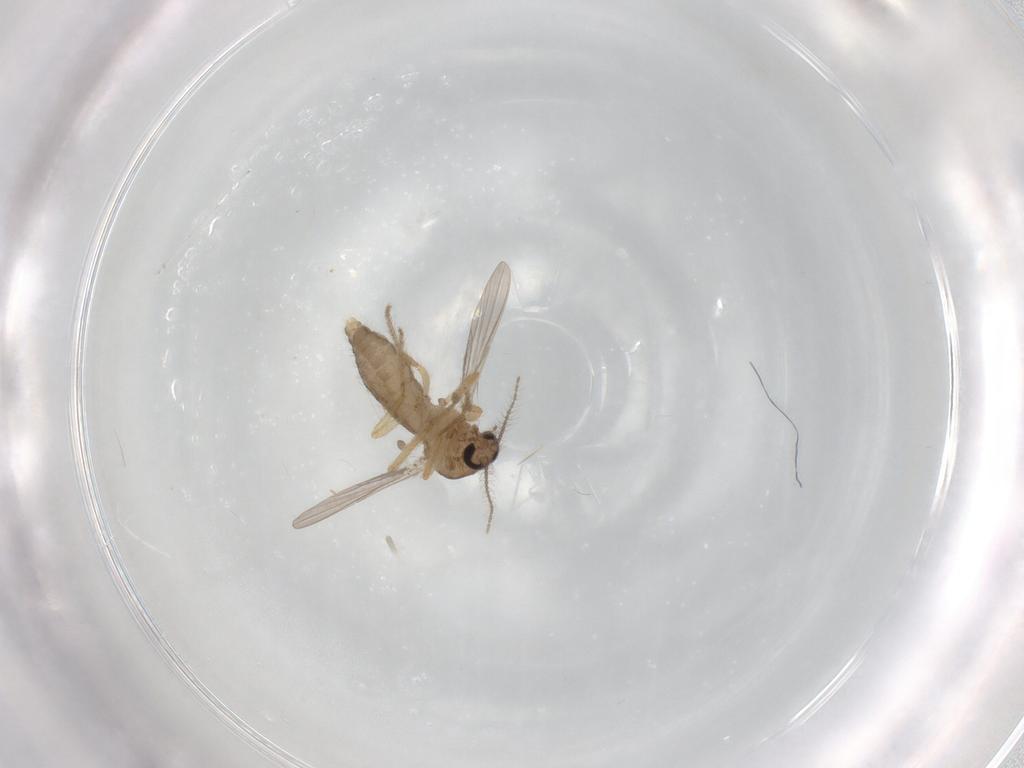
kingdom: Animalia
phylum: Arthropoda
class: Insecta
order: Diptera
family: Ceratopogonidae
